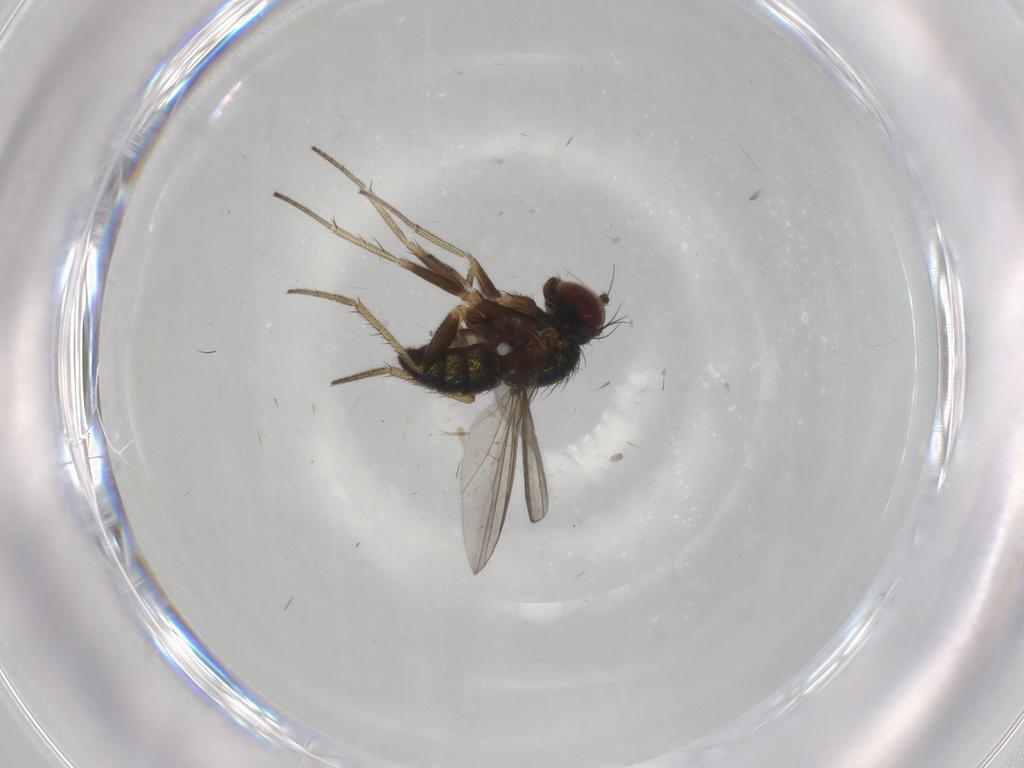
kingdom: Animalia
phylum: Arthropoda
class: Insecta
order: Diptera
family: Dolichopodidae
